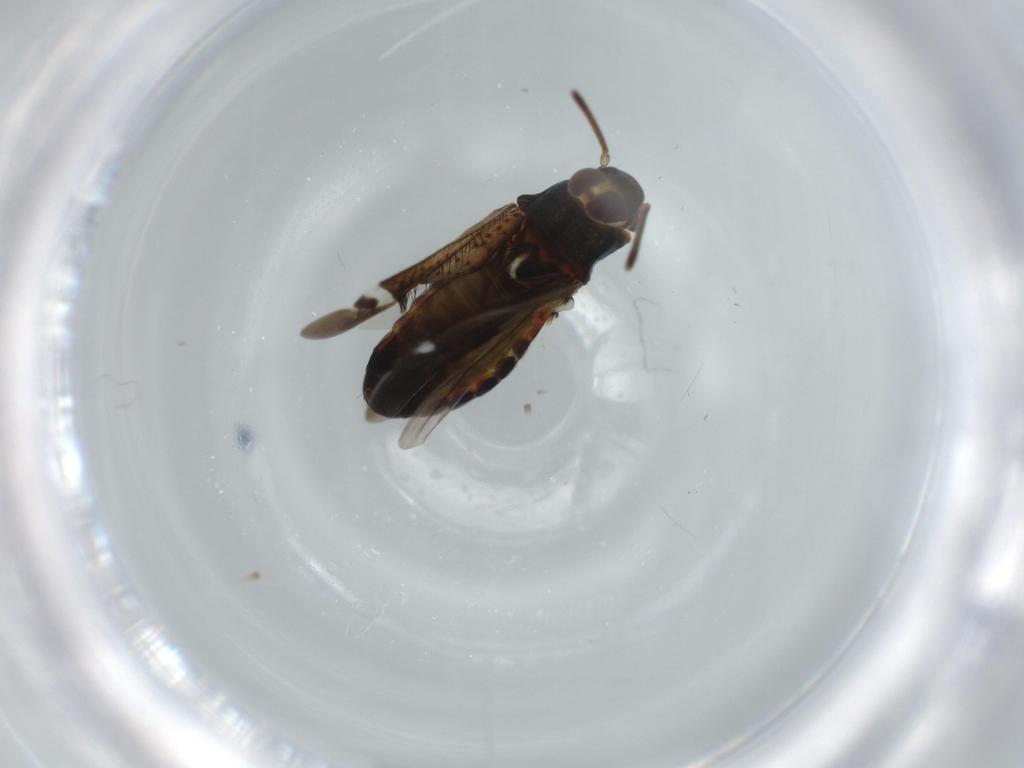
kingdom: Animalia
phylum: Arthropoda
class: Insecta
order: Hemiptera
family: Miridae
